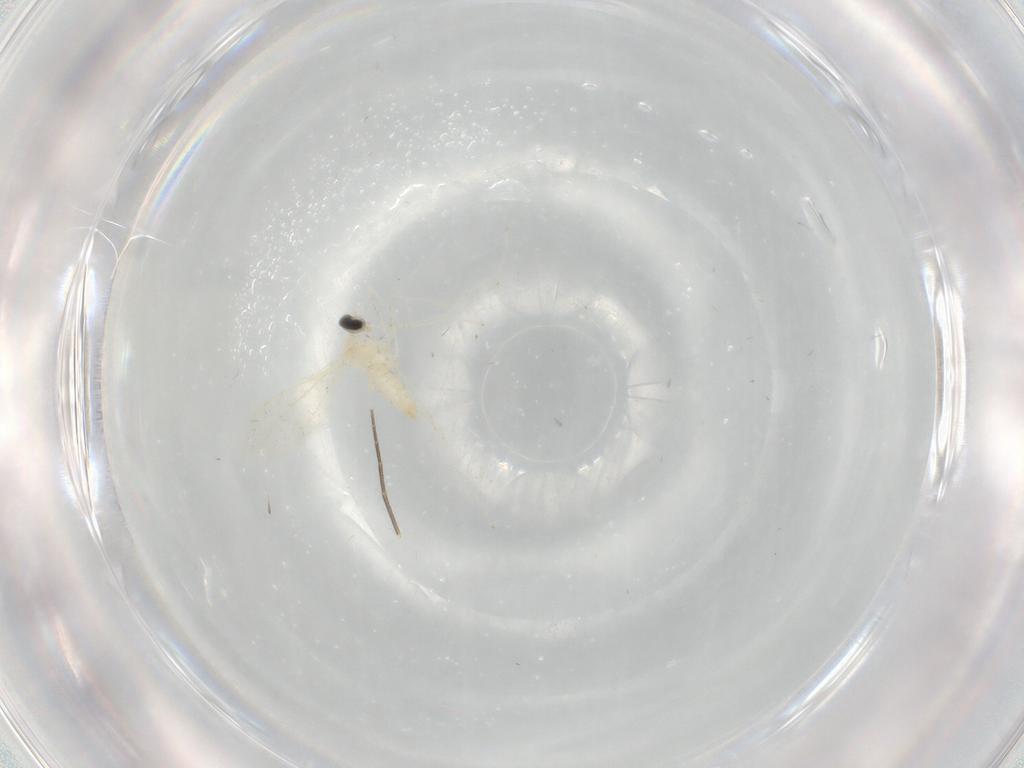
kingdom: Animalia
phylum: Arthropoda
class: Insecta
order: Diptera
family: Cecidomyiidae
